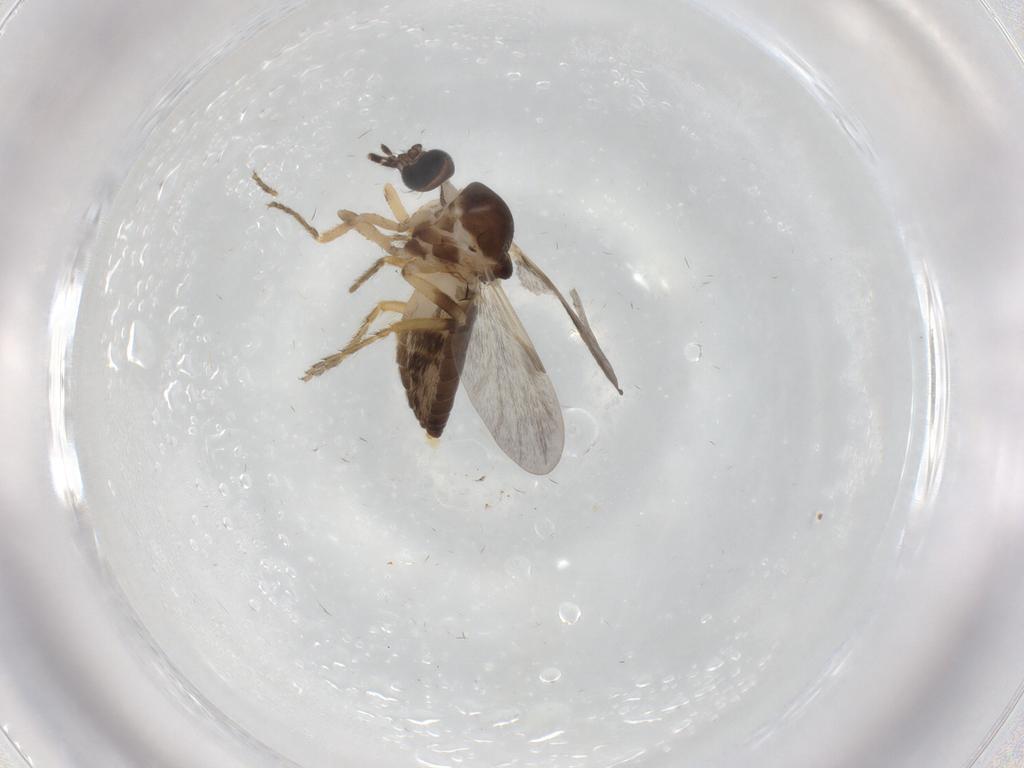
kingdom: Animalia
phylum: Arthropoda
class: Insecta
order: Diptera
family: Ceratopogonidae
